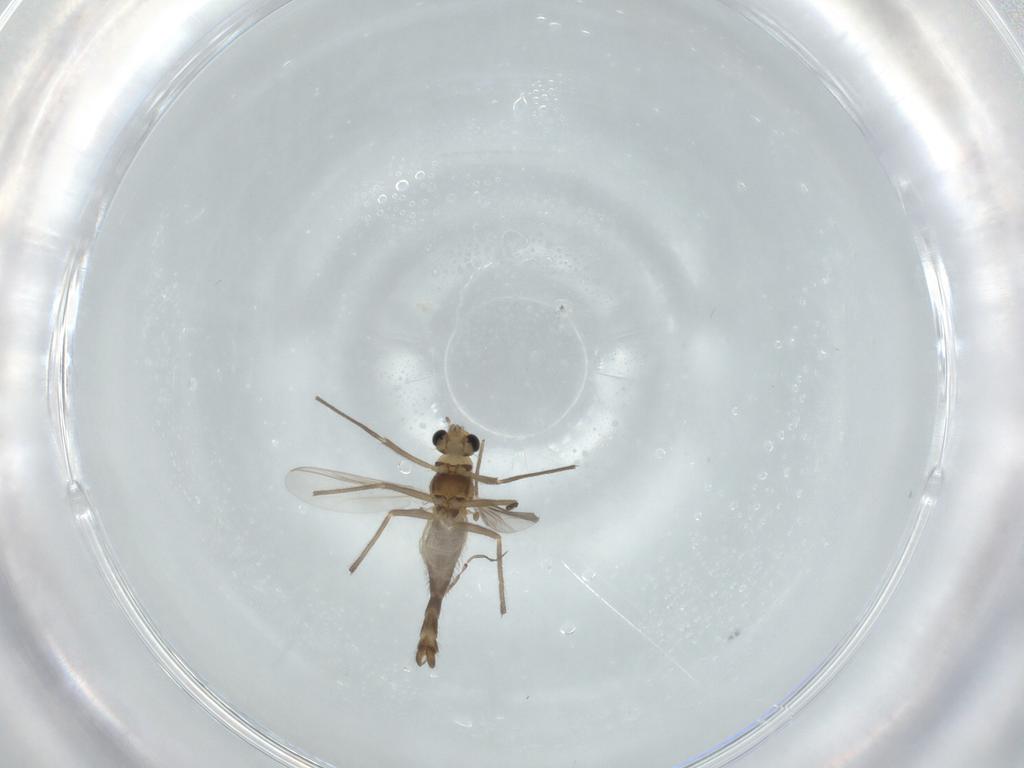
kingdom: Animalia
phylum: Arthropoda
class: Insecta
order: Diptera
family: Chironomidae
